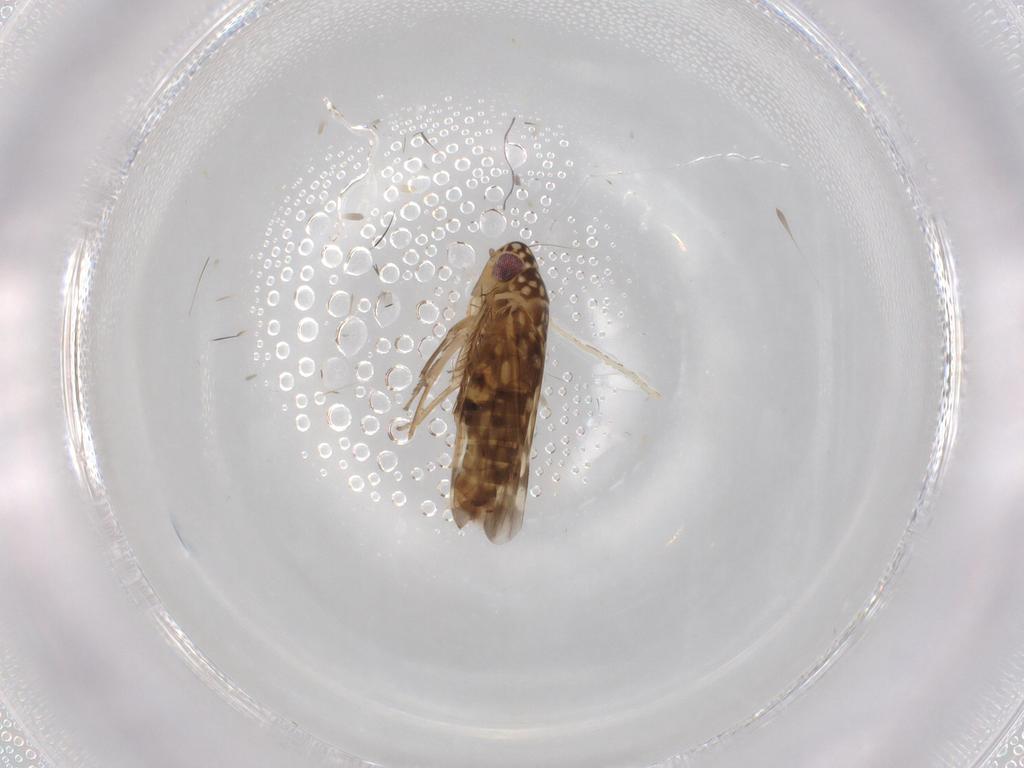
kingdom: Animalia
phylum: Arthropoda
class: Insecta
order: Hemiptera
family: Cicadellidae
